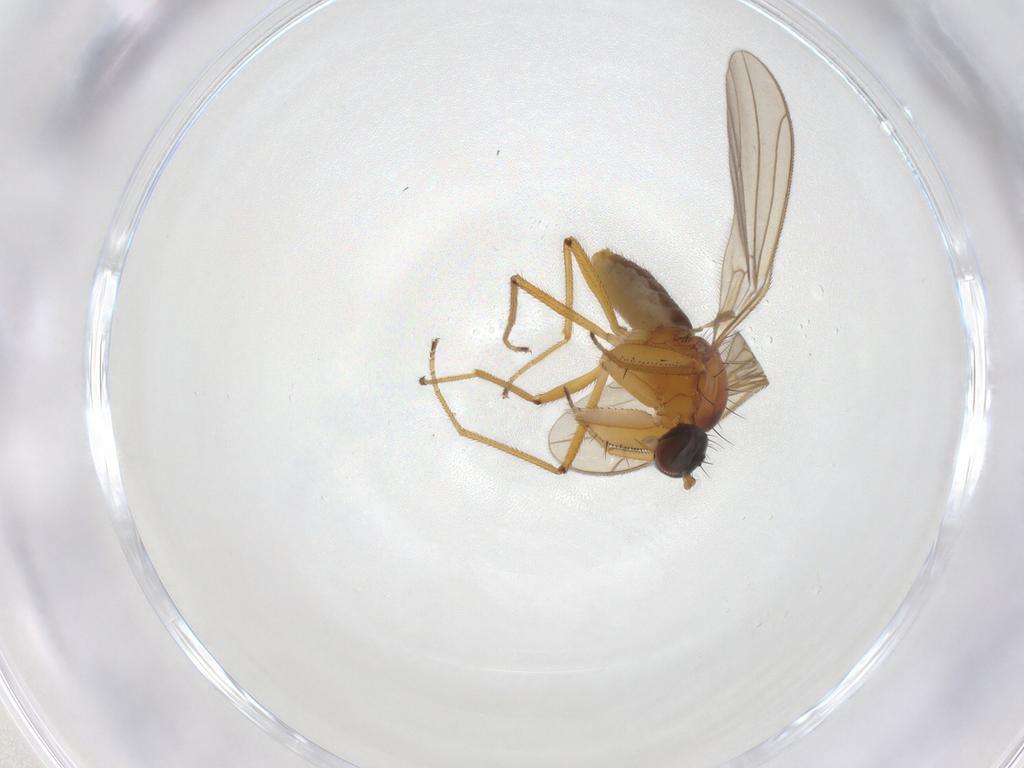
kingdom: Animalia
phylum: Arthropoda
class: Insecta
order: Diptera
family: Empididae
